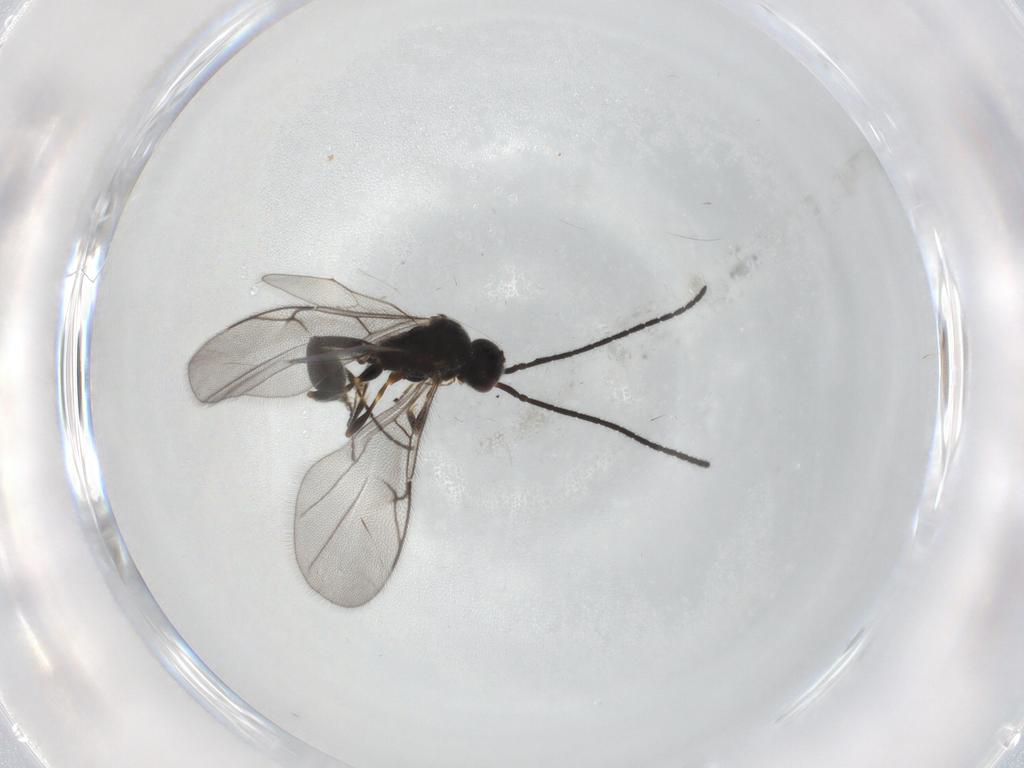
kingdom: Animalia
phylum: Arthropoda
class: Insecta
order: Hymenoptera
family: Diapriidae
